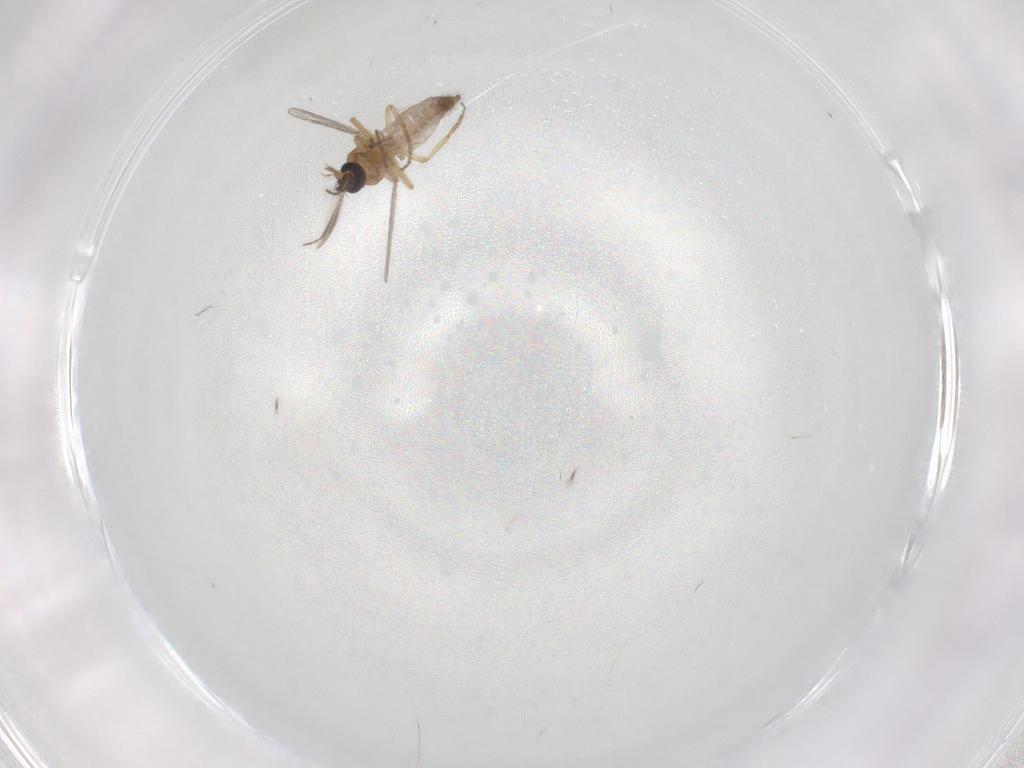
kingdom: Animalia
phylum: Arthropoda
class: Insecta
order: Diptera
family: Ceratopogonidae
